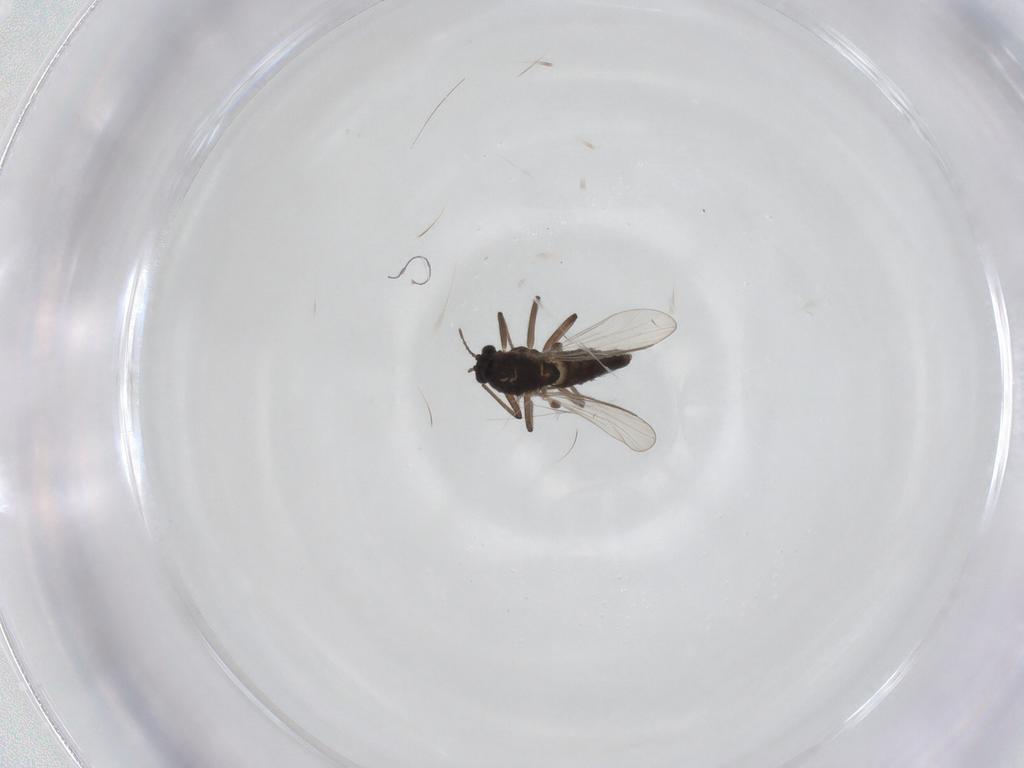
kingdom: Animalia
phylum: Arthropoda
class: Insecta
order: Diptera
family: Chironomidae
